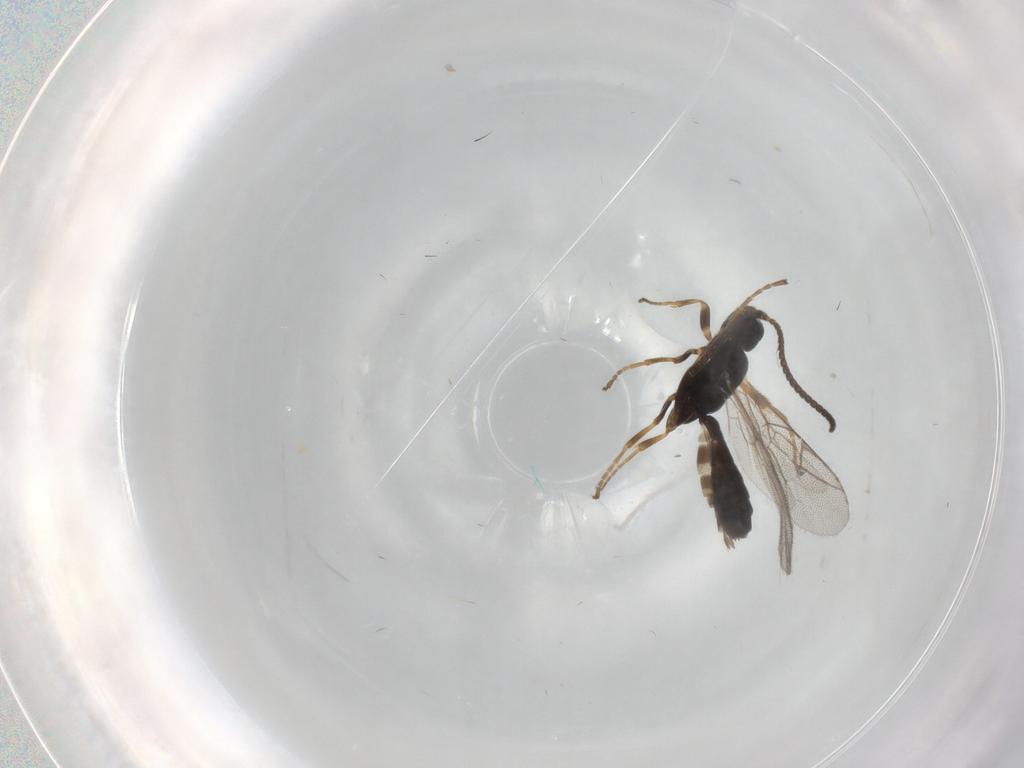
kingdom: Animalia
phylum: Arthropoda
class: Insecta
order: Hymenoptera
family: Ichneumonidae
